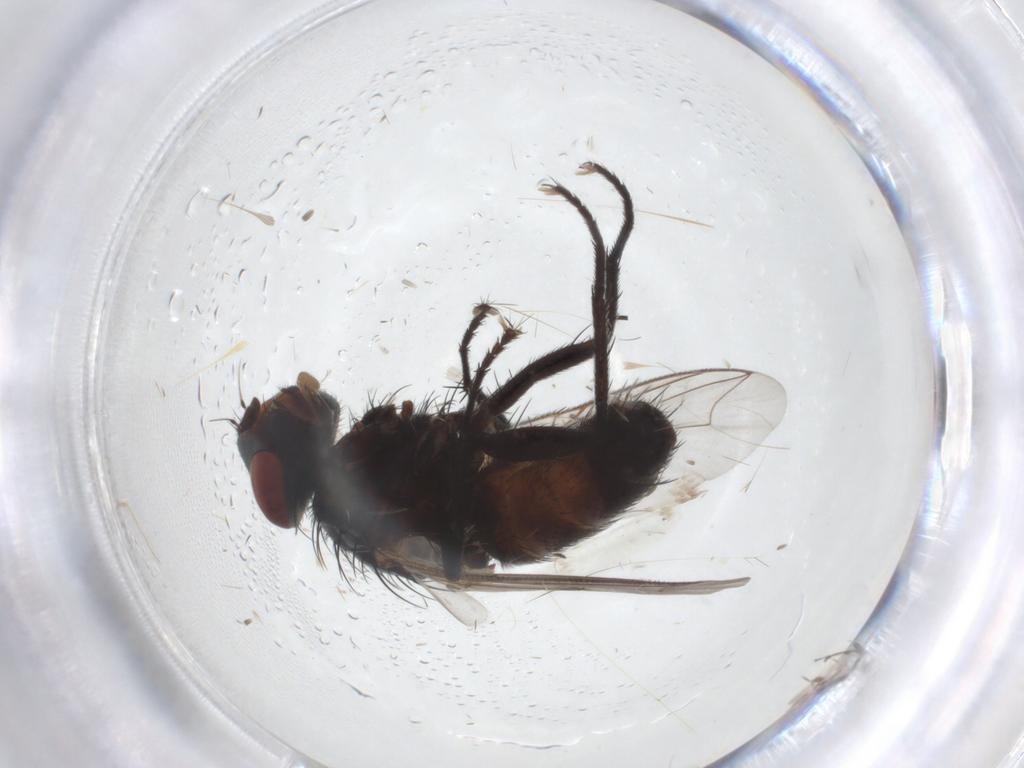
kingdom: Animalia
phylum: Arthropoda
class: Insecta
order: Diptera
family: Sarcophagidae
